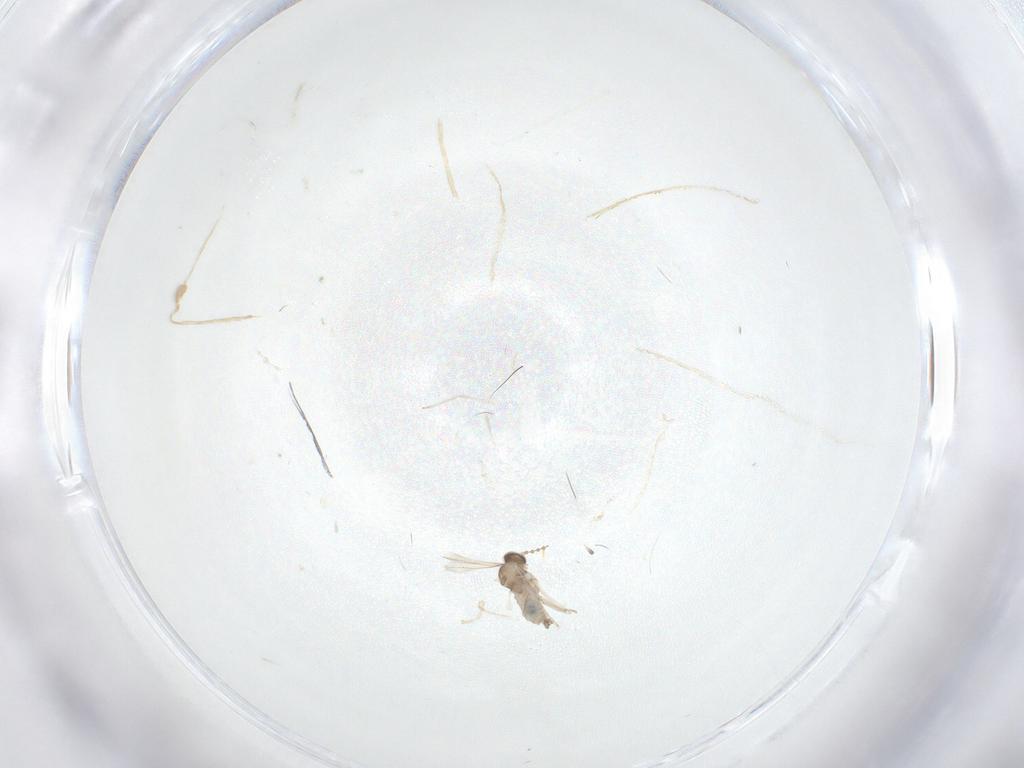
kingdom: Animalia
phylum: Arthropoda
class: Insecta
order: Diptera
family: Cecidomyiidae
